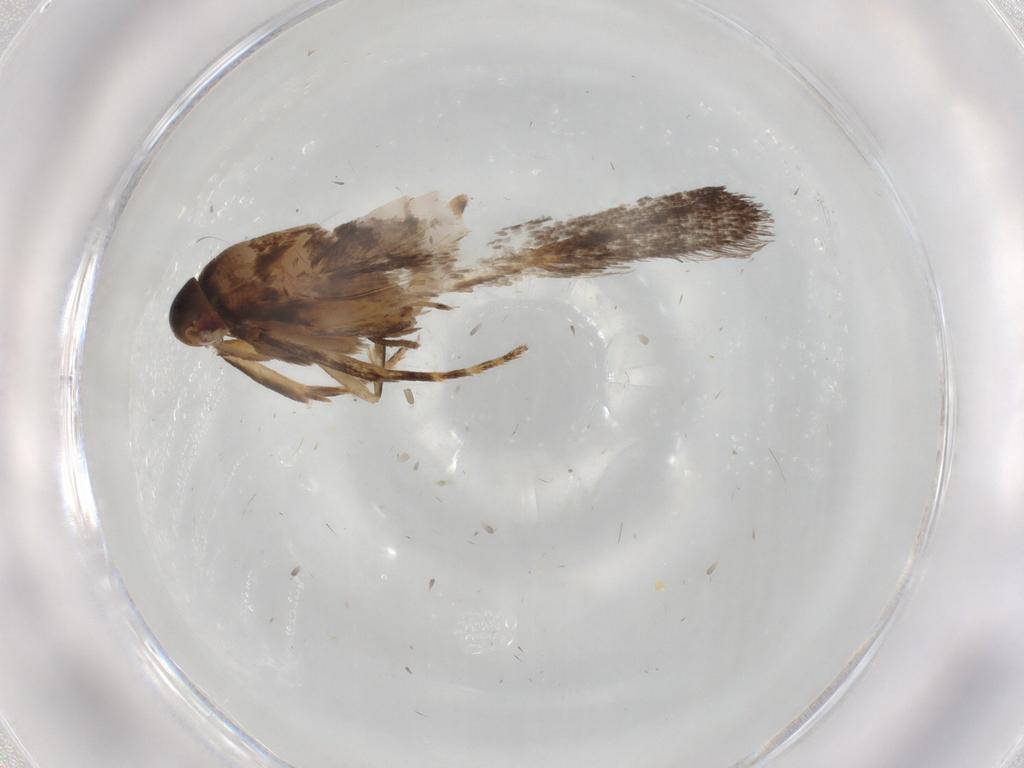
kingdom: Animalia
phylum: Arthropoda
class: Insecta
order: Lepidoptera
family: Gelechiidae
